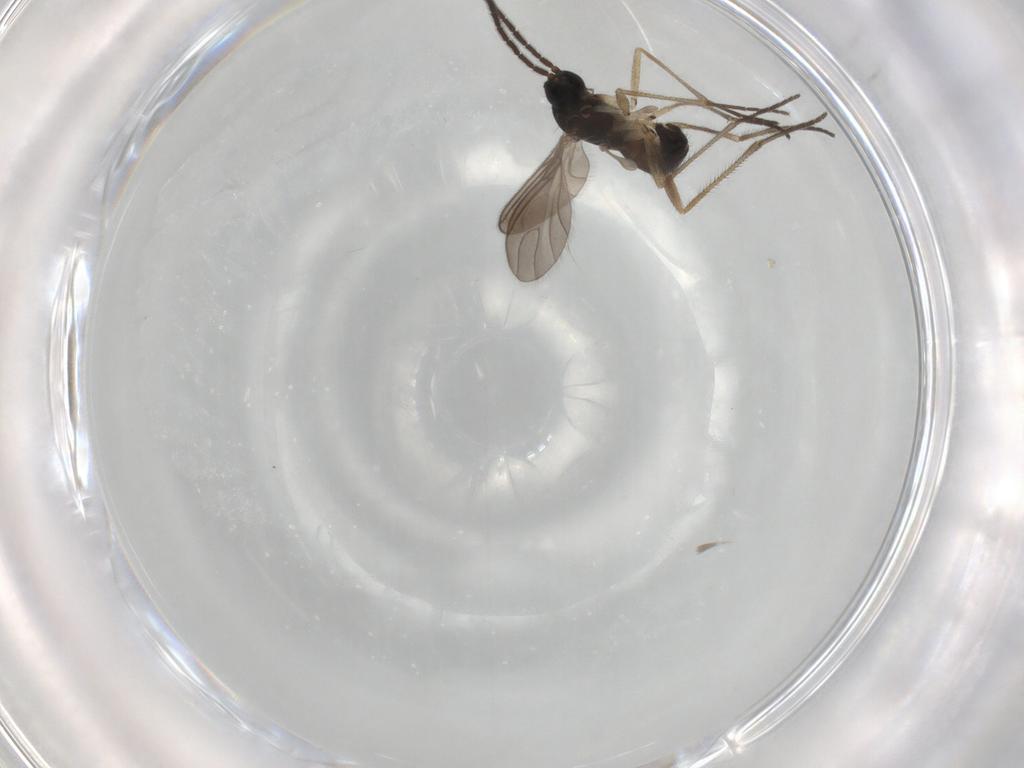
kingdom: Animalia
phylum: Arthropoda
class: Insecta
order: Diptera
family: Sciaridae
